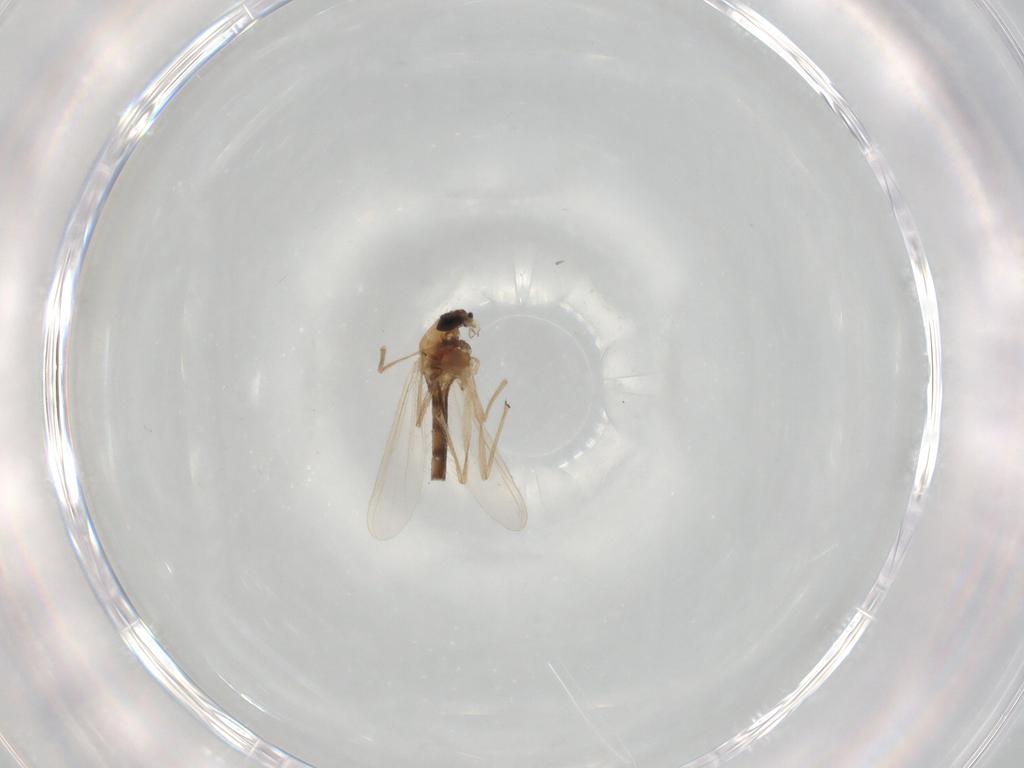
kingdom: Animalia
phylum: Arthropoda
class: Insecta
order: Diptera
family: Chironomidae
